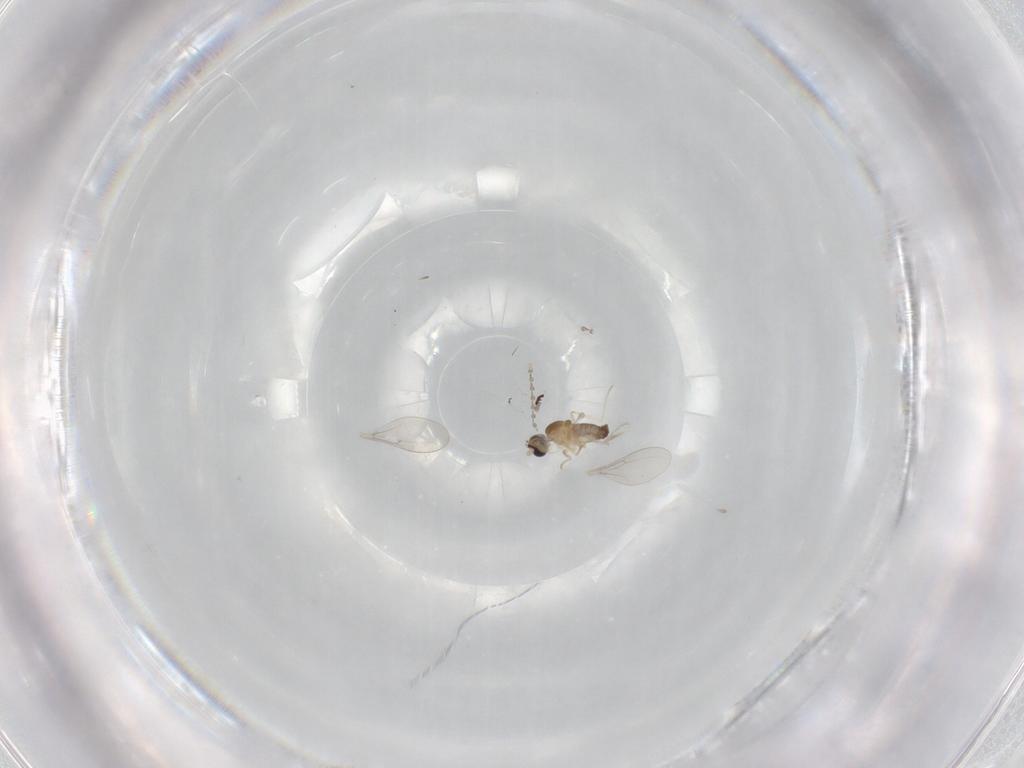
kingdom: Animalia
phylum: Arthropoda
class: Insecta
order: Diptera
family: Cecidomyiidae
